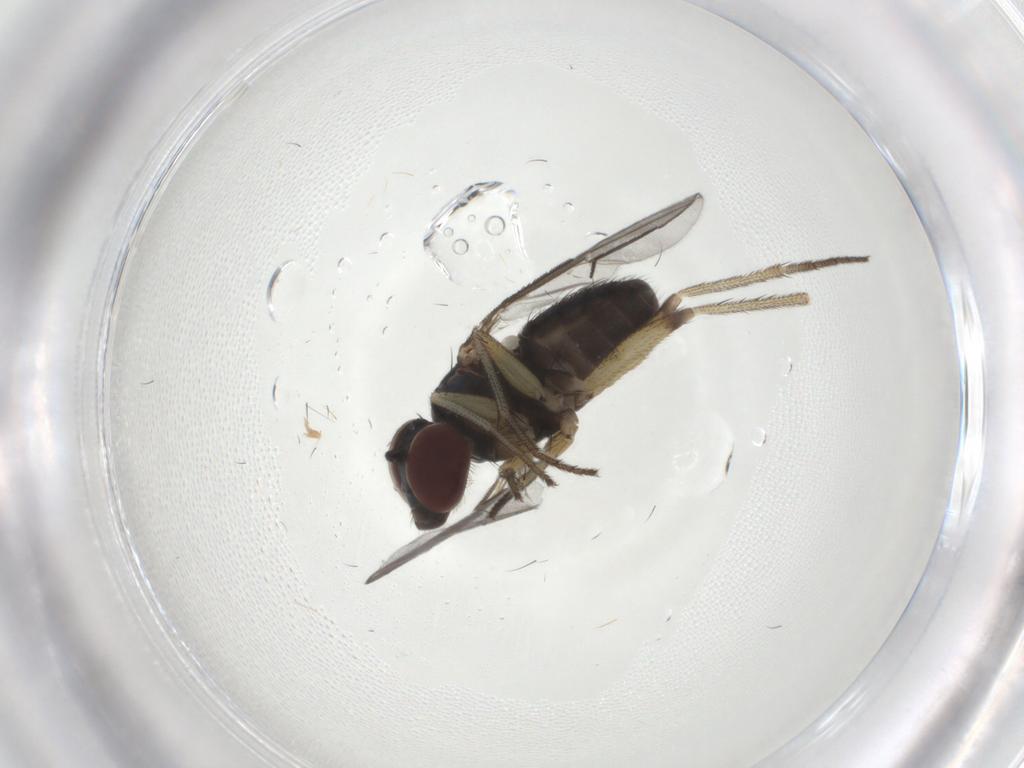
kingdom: Animalia
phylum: Arthropoda
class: Insecta
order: Diptera
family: Dolichopodidae
